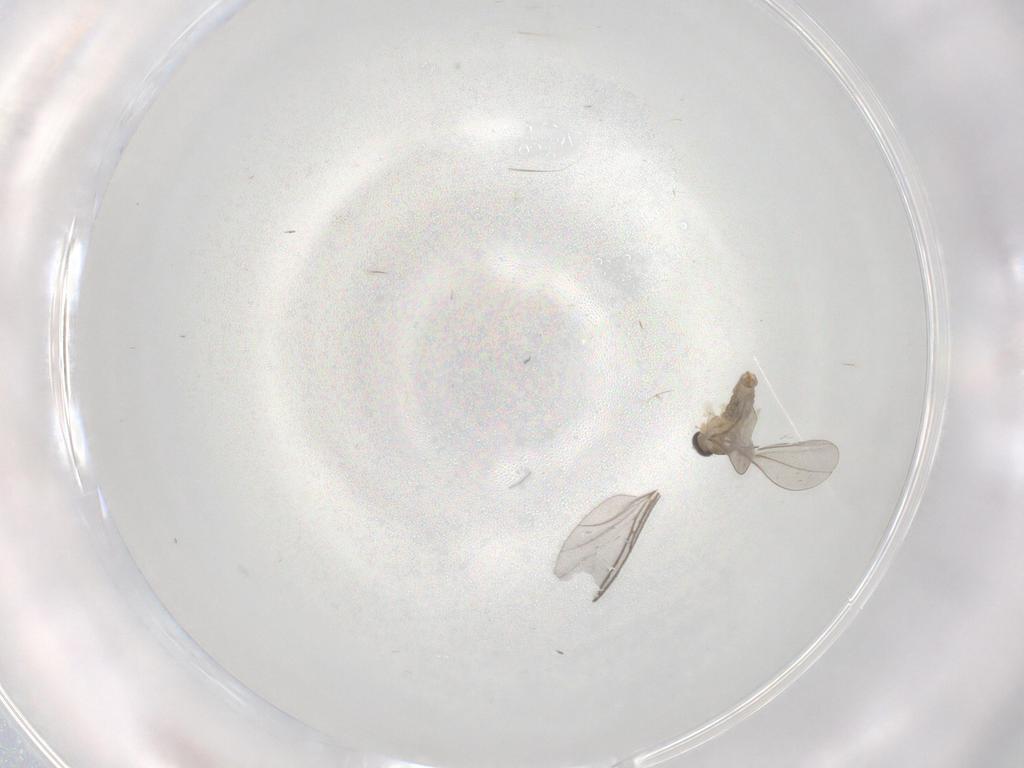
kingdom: Animalia
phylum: Arthropoda
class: Insecta
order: Diptera
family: Cecidomyiidae
